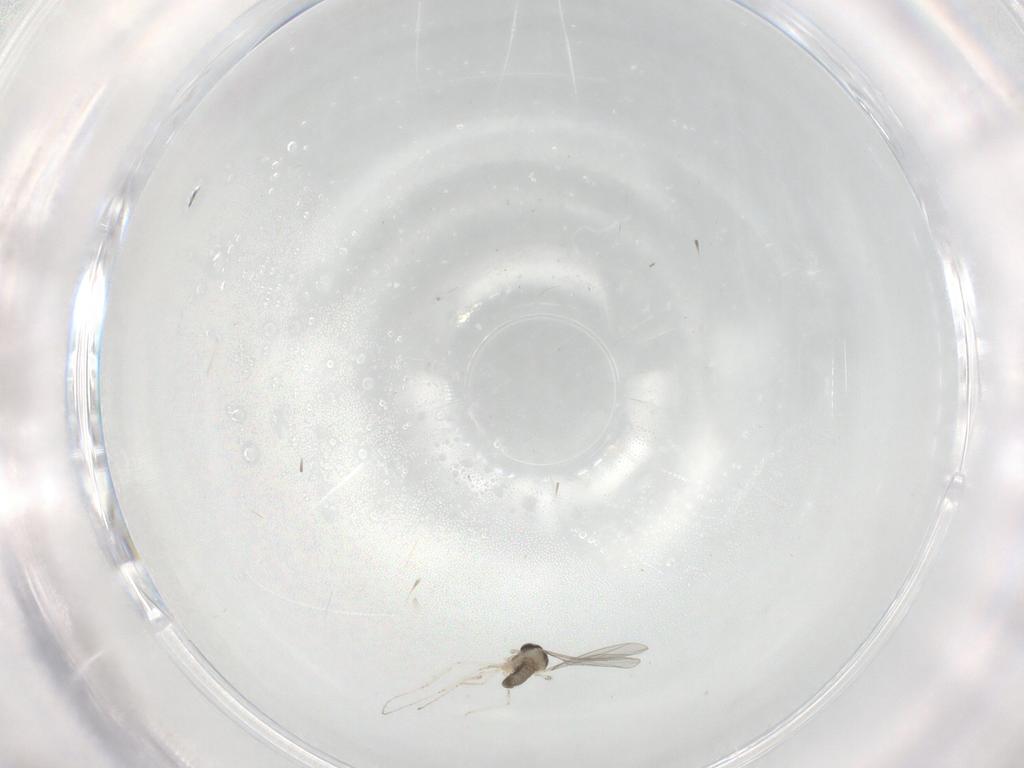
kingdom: Animalia
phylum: Arthropoda
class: Insecta
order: Diptera
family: Cecidomyiidae
